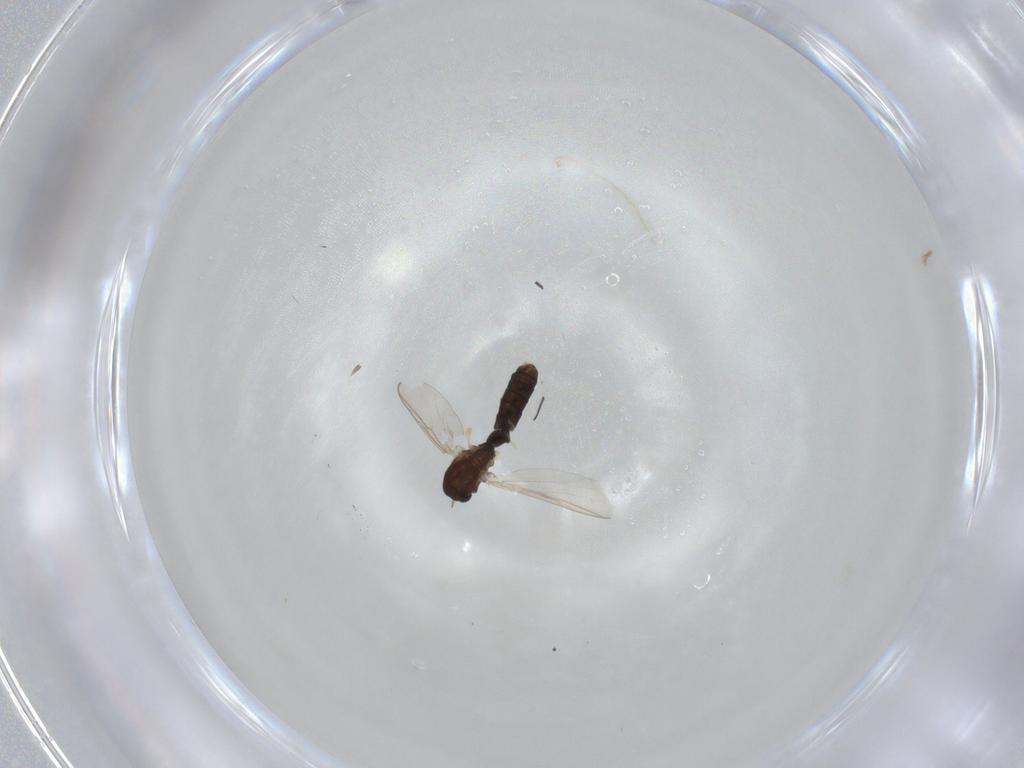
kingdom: Animalia
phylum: Arthropoda
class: Insecta
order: Diptera
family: Chironomidae
